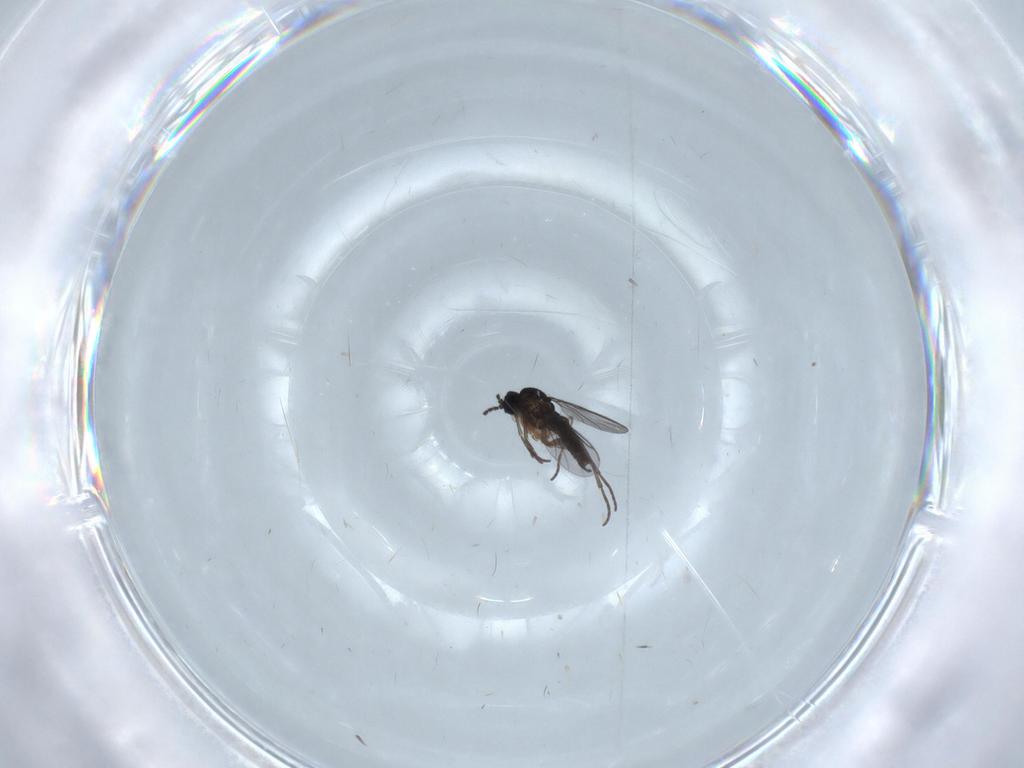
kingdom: Animalia
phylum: Arthropoda
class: Insecta
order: Diptera
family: Sciaridae
